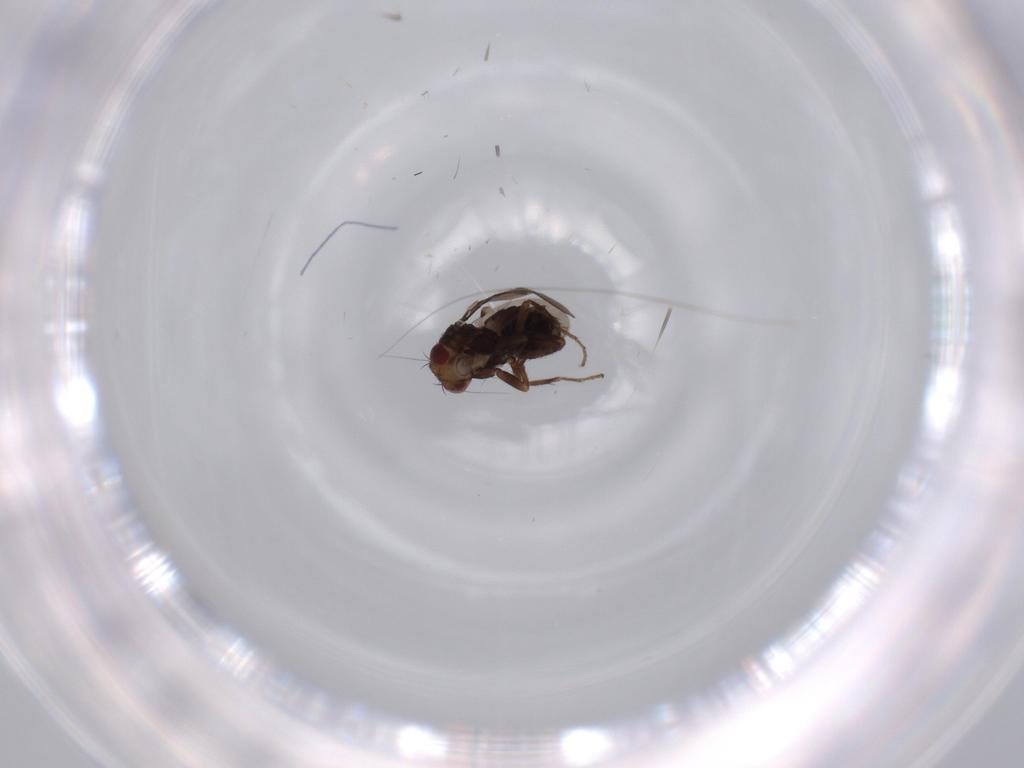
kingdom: Animalia
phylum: Arthropoda
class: Insecta
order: Diptera
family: Sphaeroceridae
